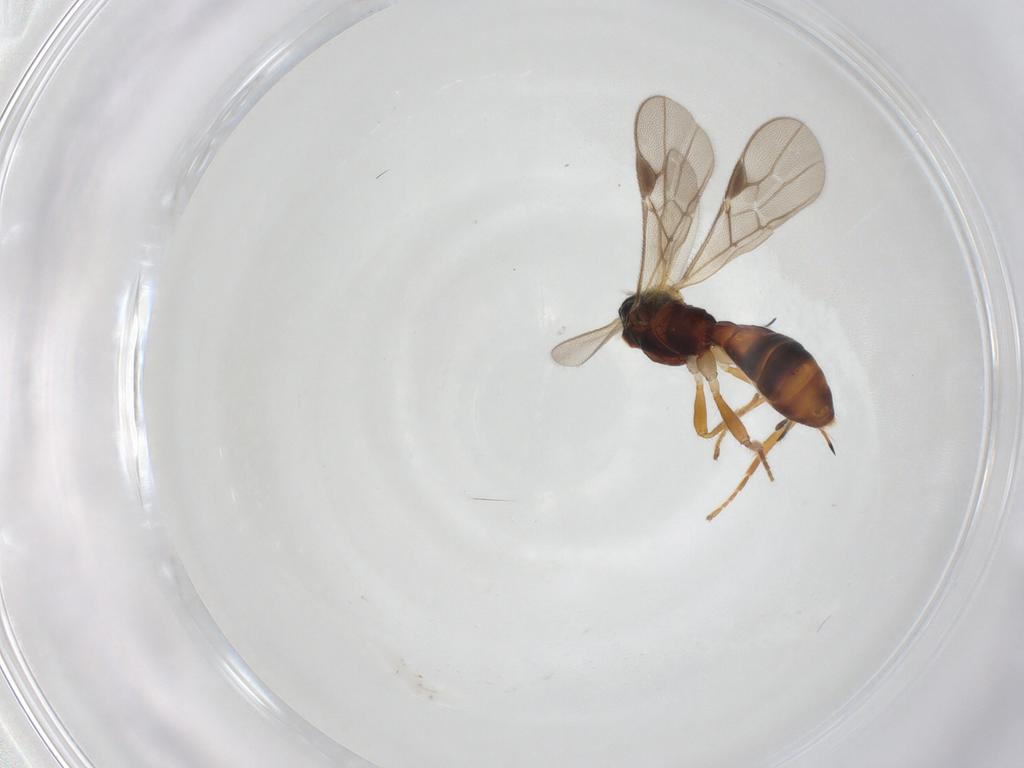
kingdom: Animalia
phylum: Arthropoda
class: Insecta
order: Hymenoptera
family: Braconidae
